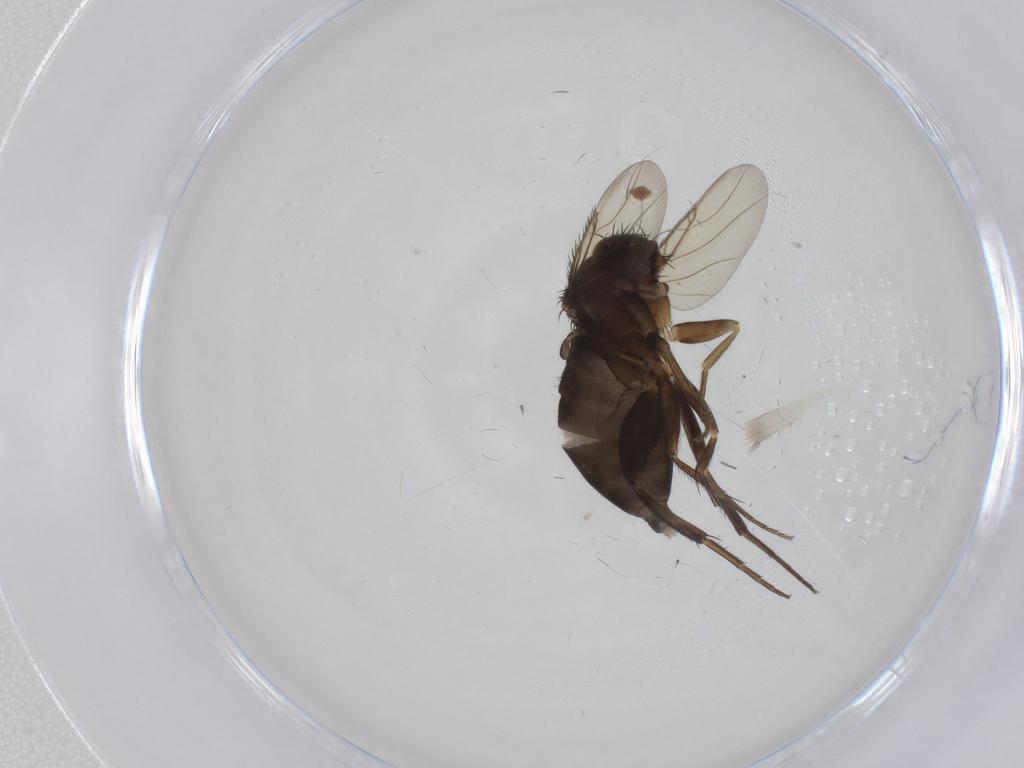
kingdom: Animalia
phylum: Arthropoda
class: Insecta
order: Diptera
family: Phoridae
